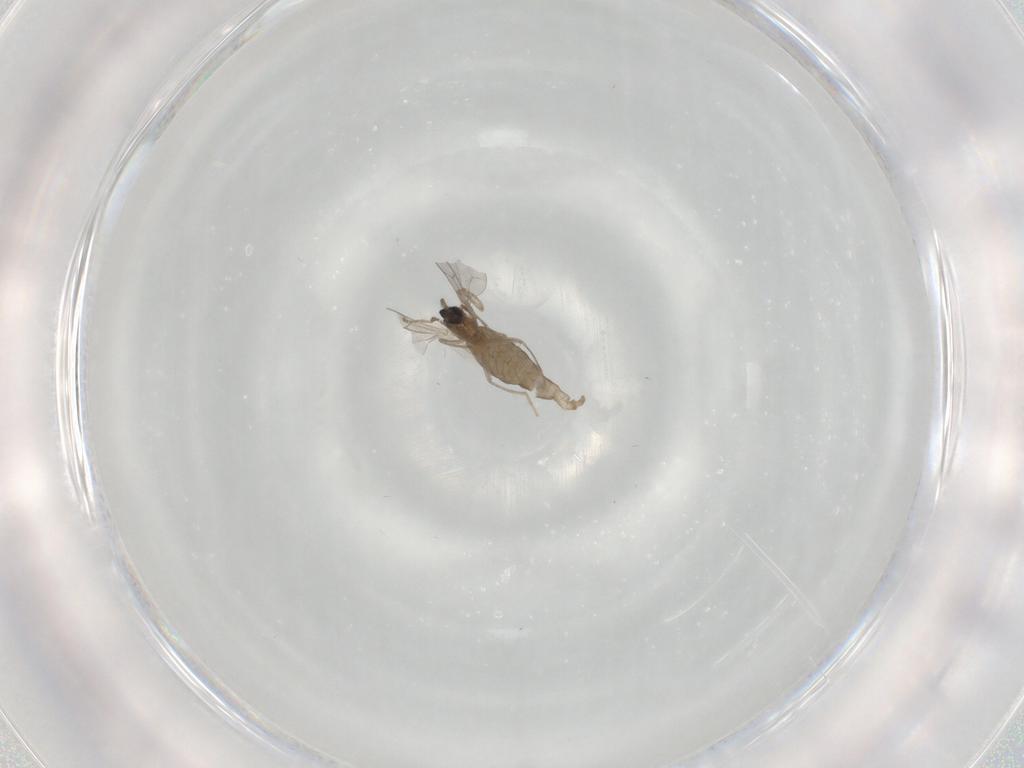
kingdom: Animalia
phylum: Arthropoda
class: Insecta
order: Diptera
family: Cecidomyiidae
